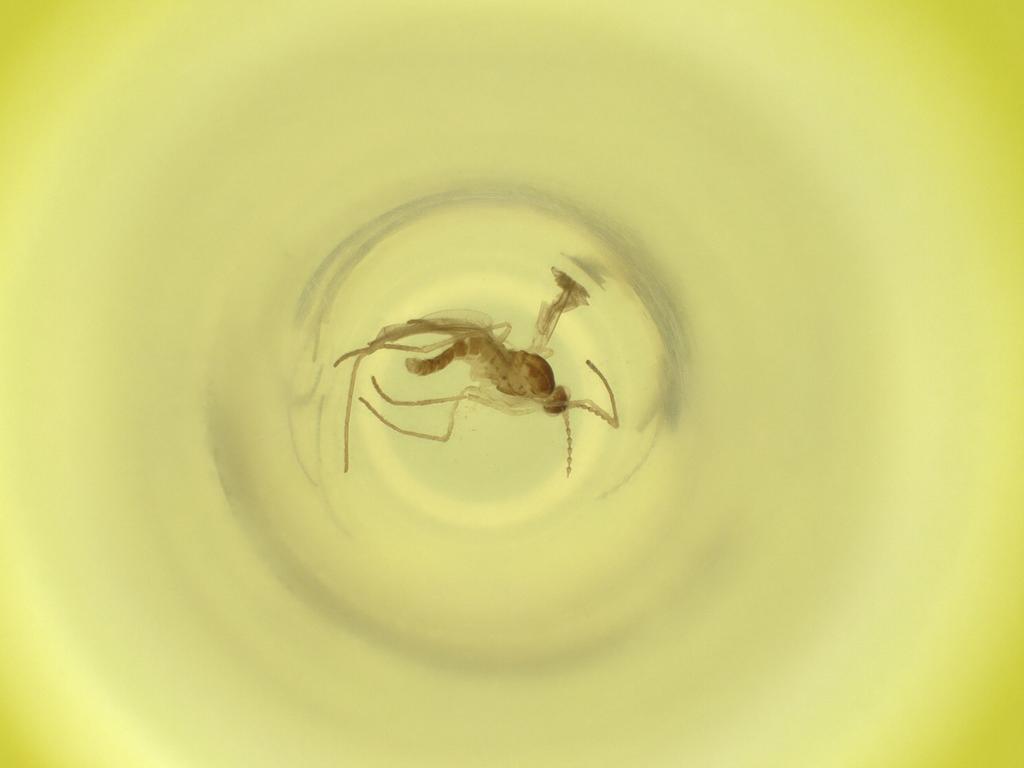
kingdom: Animalia
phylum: Arthropoda
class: Insecta
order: Diptera
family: Cecidomyiidae
